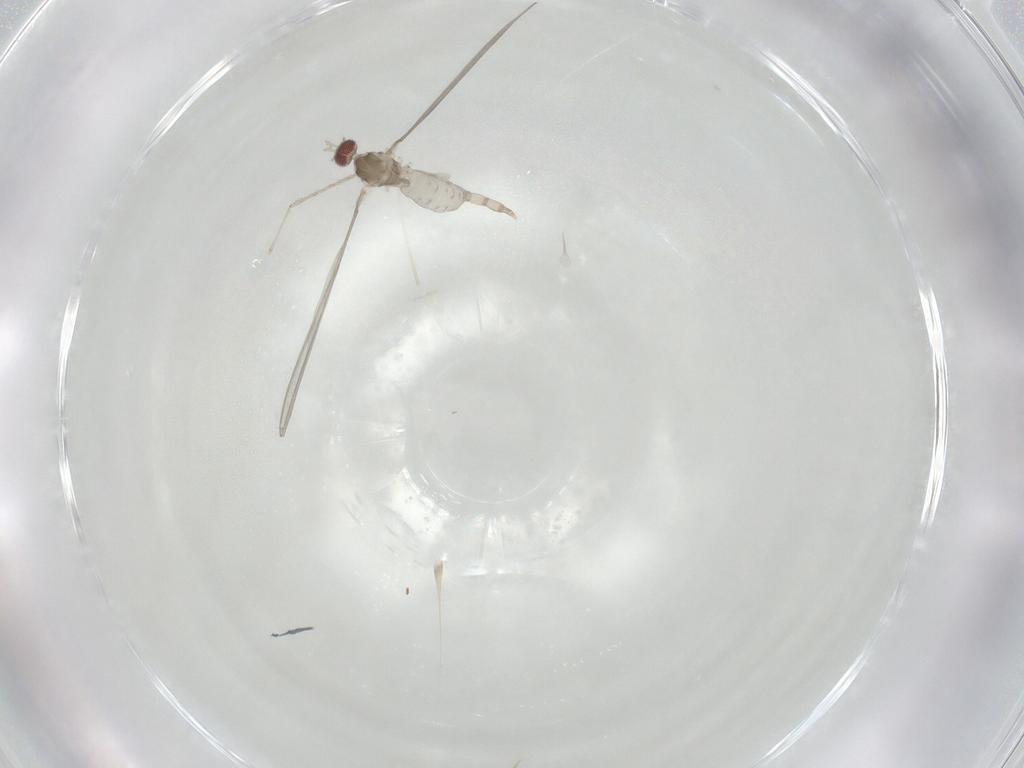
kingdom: Animalia
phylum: Arthropoda
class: Insecta
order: Diptera
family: Cecidomyiidae
